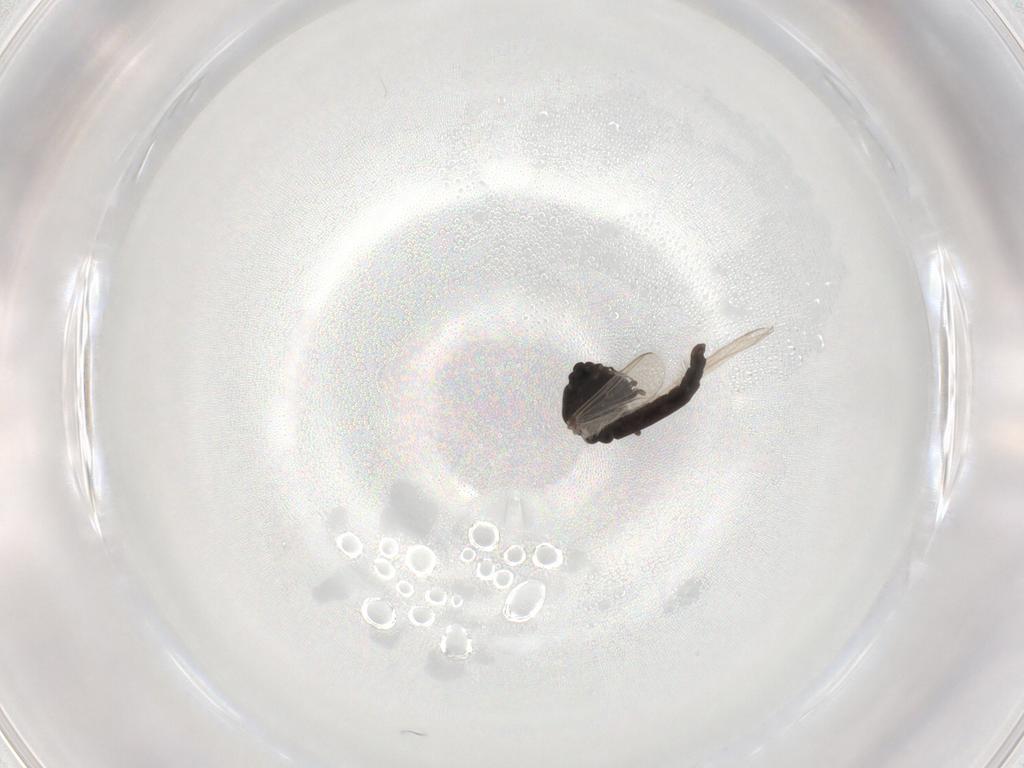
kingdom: Animalia
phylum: Arthropoda
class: Insecta
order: Diptera
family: Chironomidae
